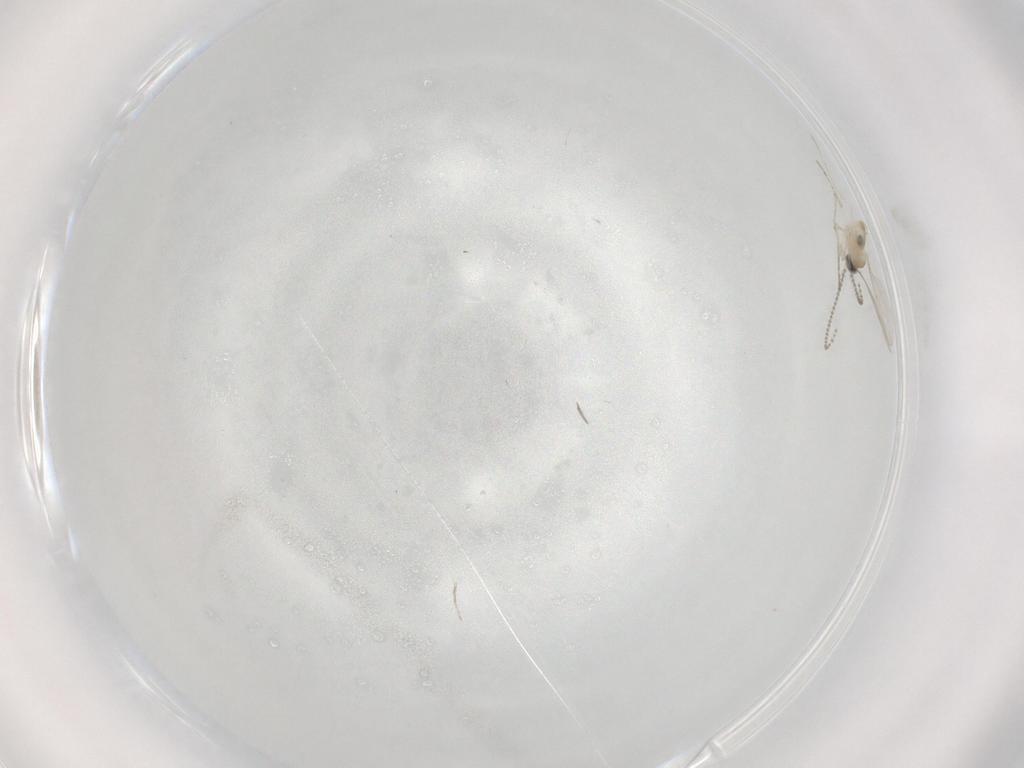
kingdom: Animalia
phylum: Arthropoda
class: Insecta
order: Diptera
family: Cecidomyiidae
